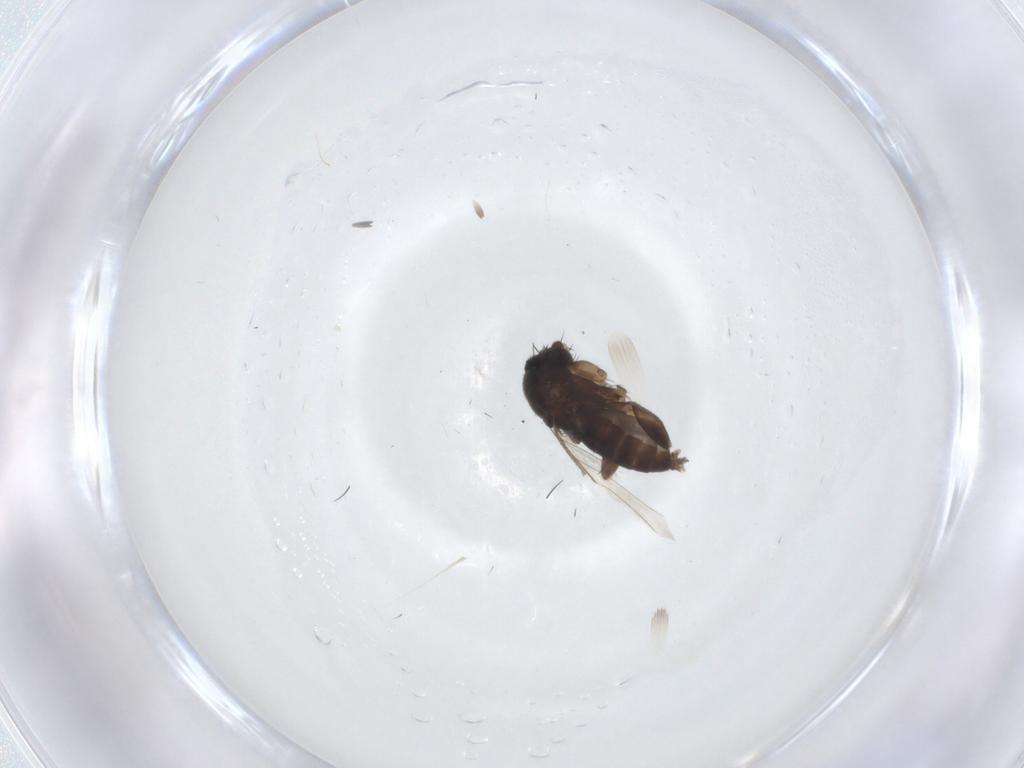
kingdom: Animalia
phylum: Arthropoda
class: Insecta
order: Diptera
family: Phoridae
